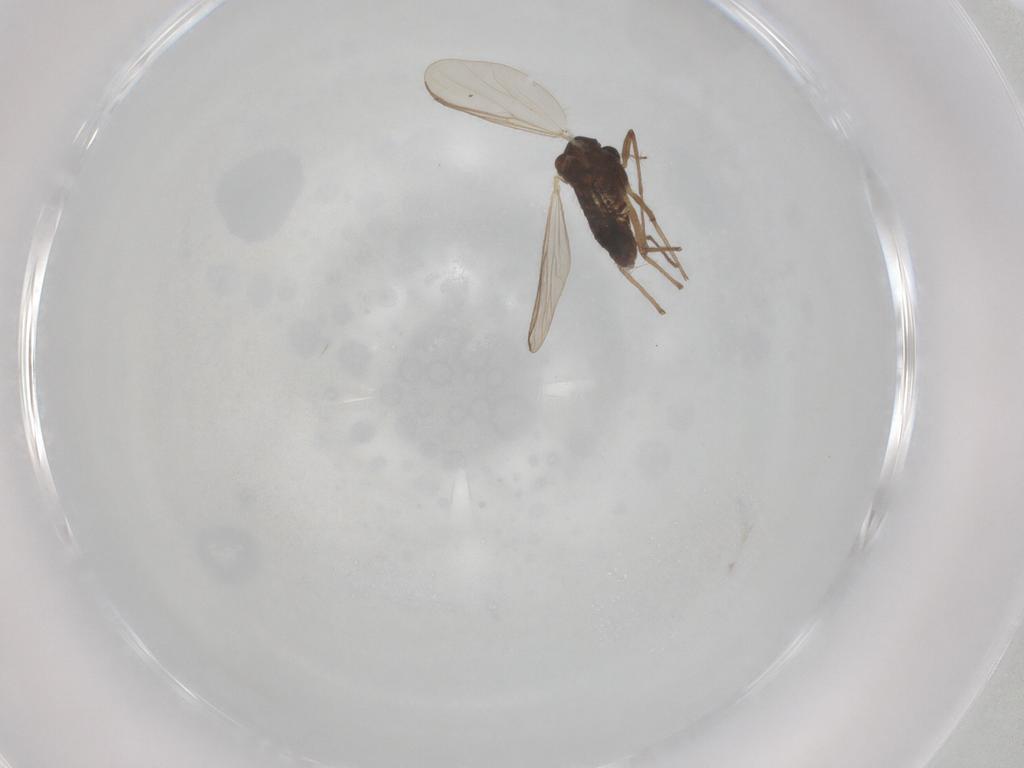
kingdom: Animalia
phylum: Arthropoda
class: Insecta
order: Diptera
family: Chironomidae
